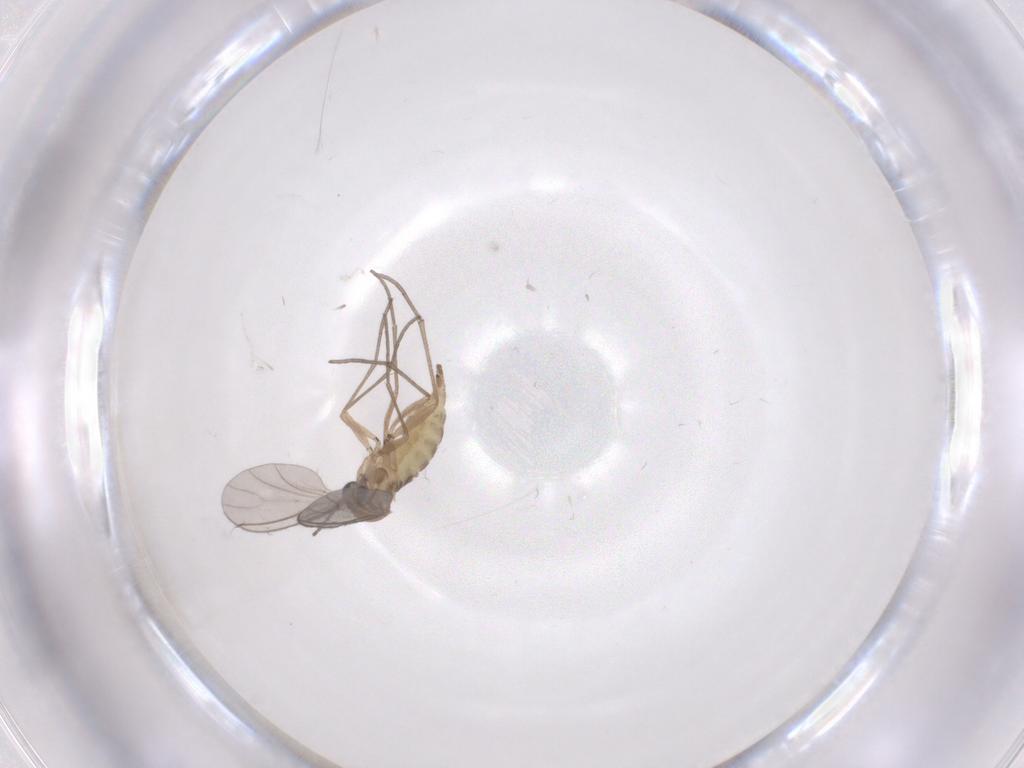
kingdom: Animalia
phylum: Arthropoda
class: Insecta
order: Diptera
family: Sciaridae
